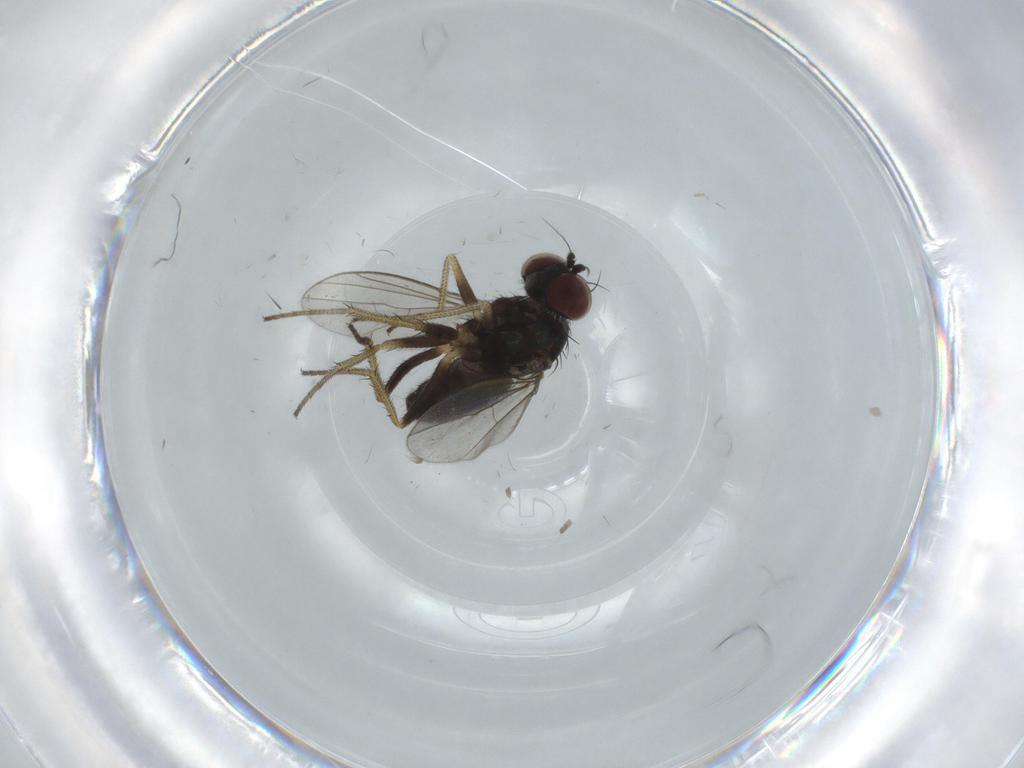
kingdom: Animalia
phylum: Arthropoda
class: Insecta
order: Diptera
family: Dolichopodidae
